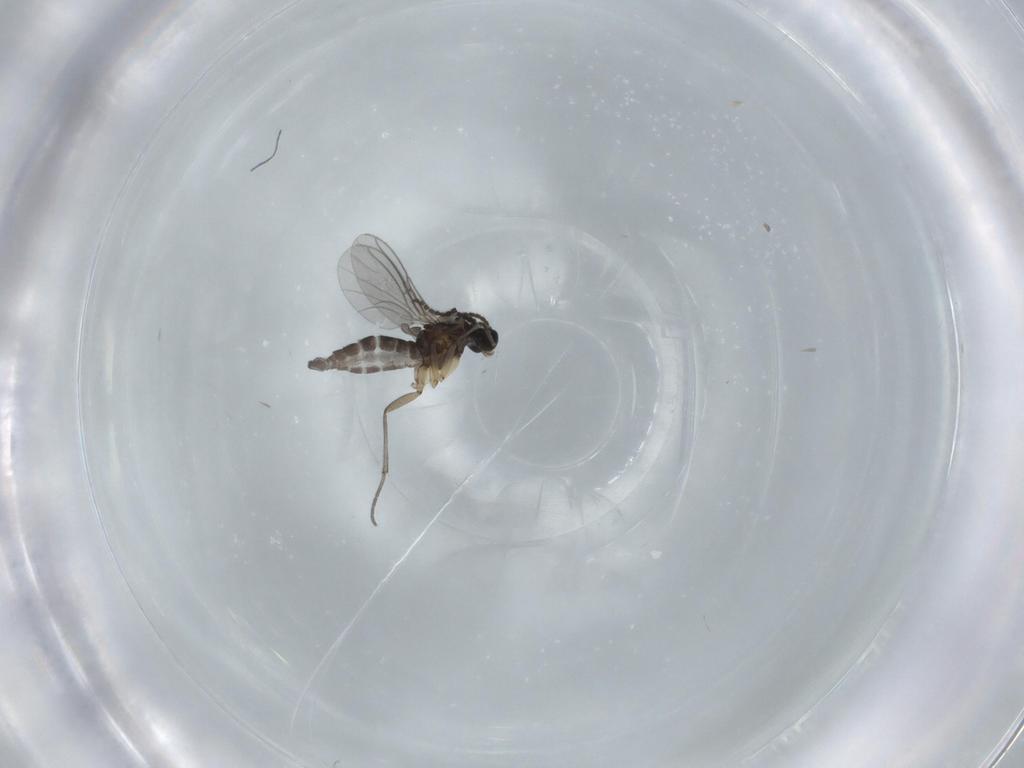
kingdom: Animalia
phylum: Arthropoda
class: Insecta
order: Diptera
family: Sciaridae
